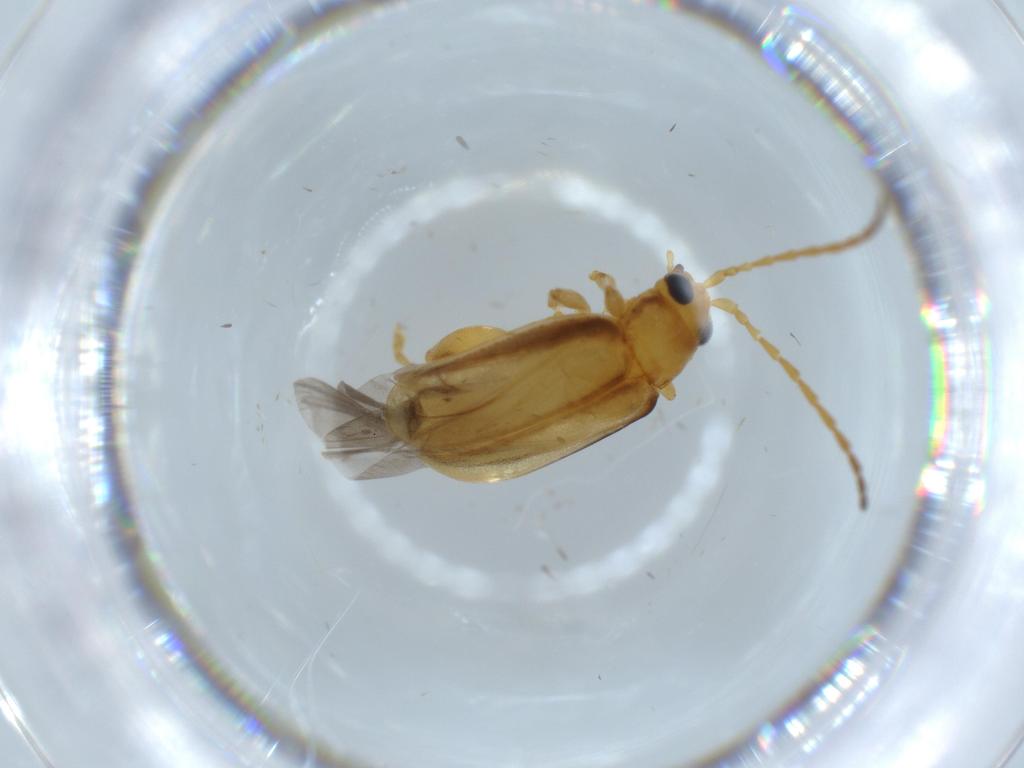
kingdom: Animalia
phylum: Arthropoda
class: Insecta
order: Coleoptera
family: Chrysomelidae
